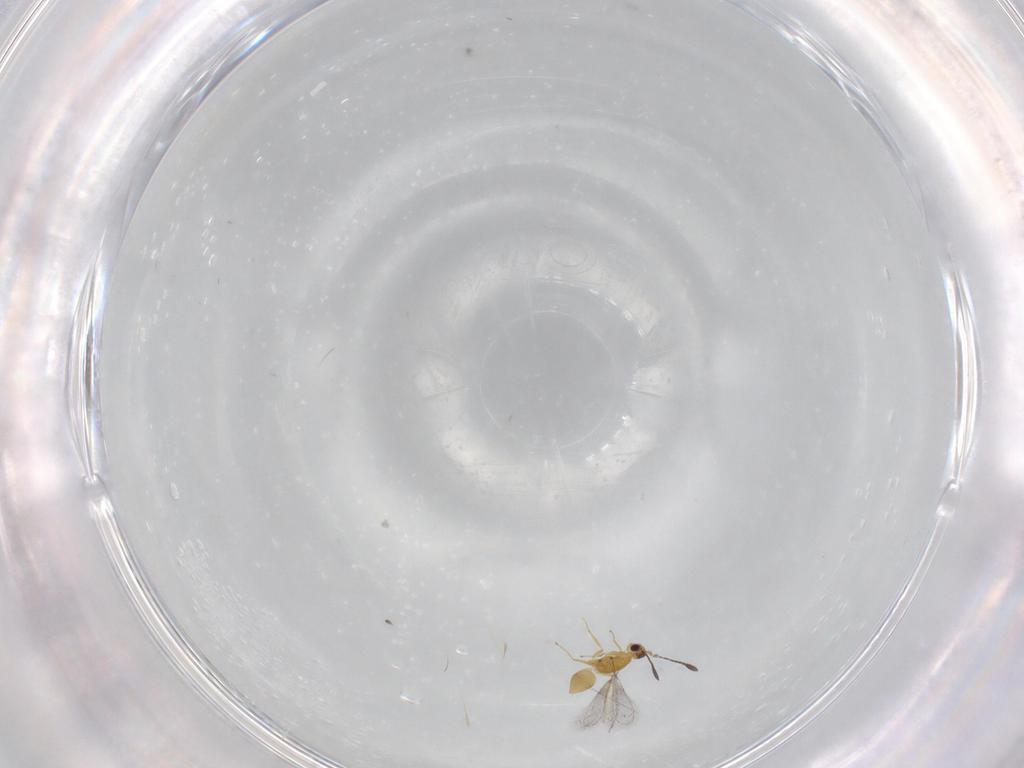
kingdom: Animalia
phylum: Arthropoda
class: Insecta
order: Hymenoptera
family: Mymaridae
